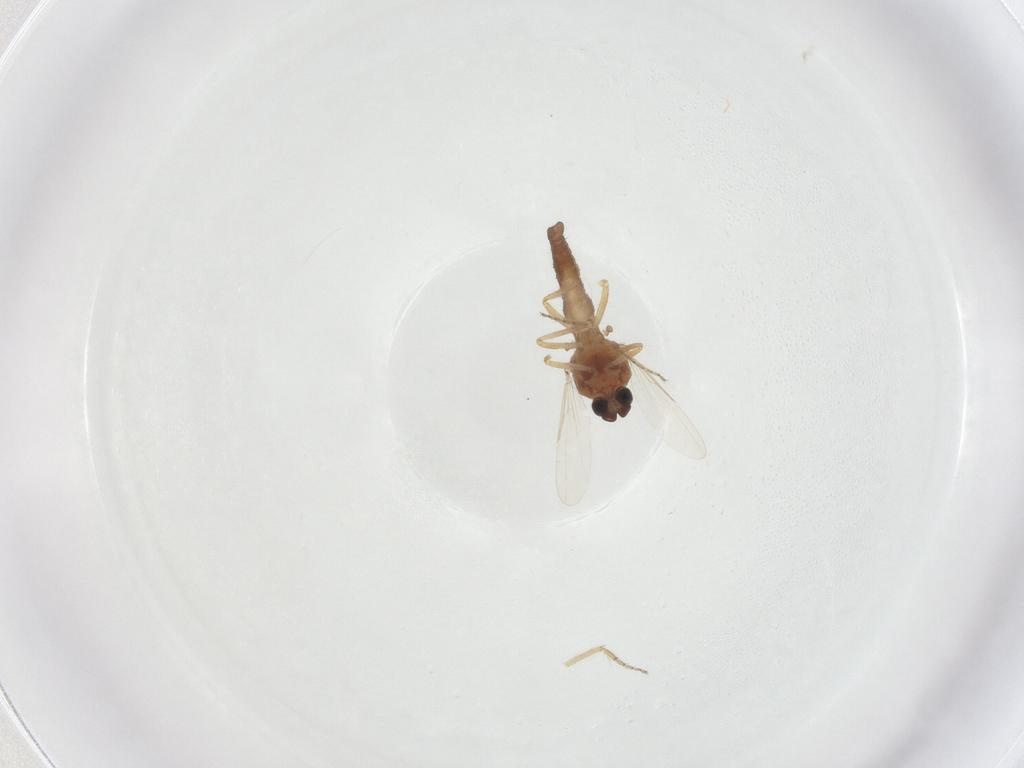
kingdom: Animalia
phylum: Arthropoda
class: Insecta
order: Diptera
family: Ceratopogonidae
